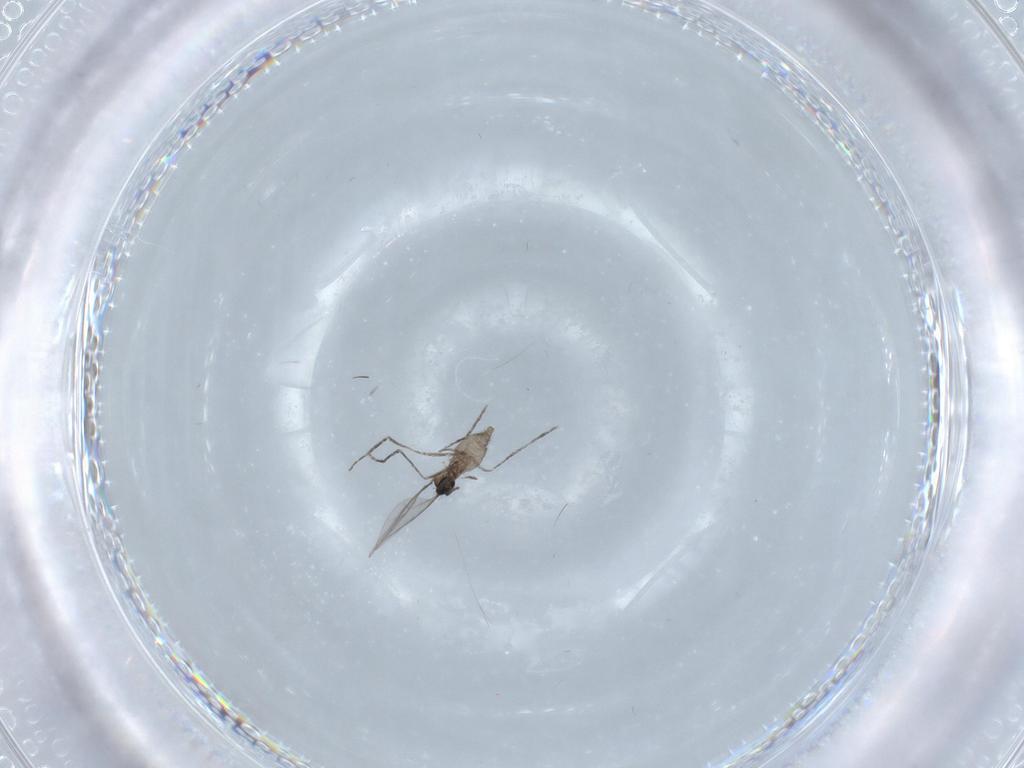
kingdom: Animalia
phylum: Arthropoda
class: Insecta
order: Diptera
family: Cecidomyiidae
